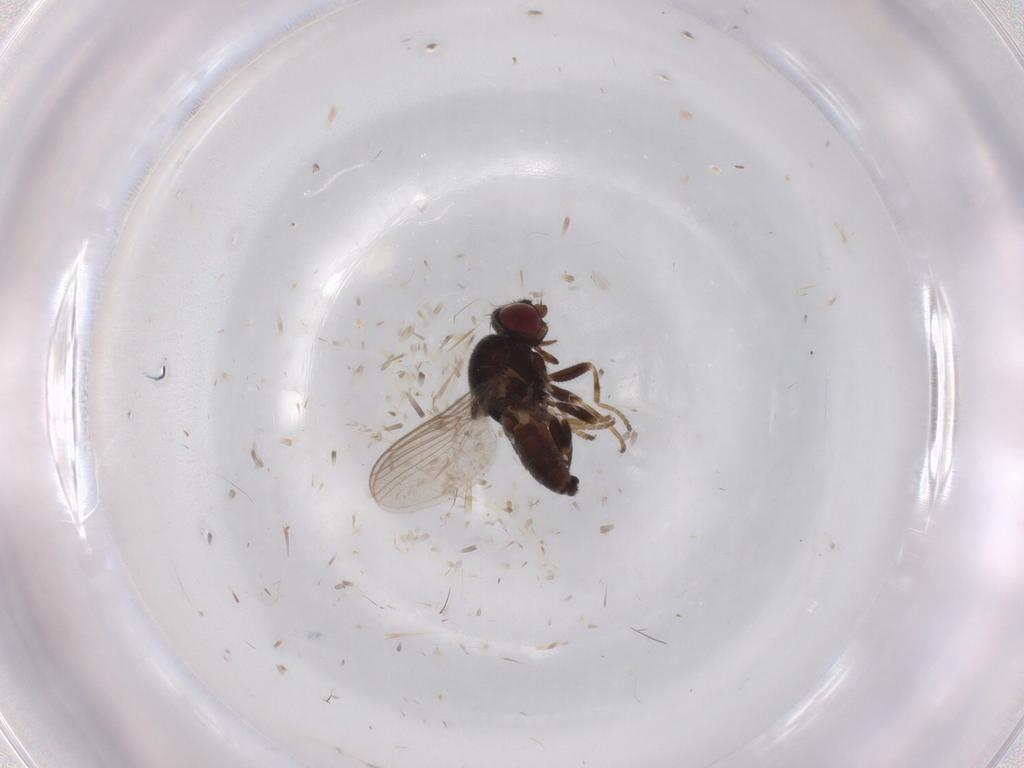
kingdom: Animalia
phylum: Arthropoda
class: Insecta
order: Diptera
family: Chloropidae
